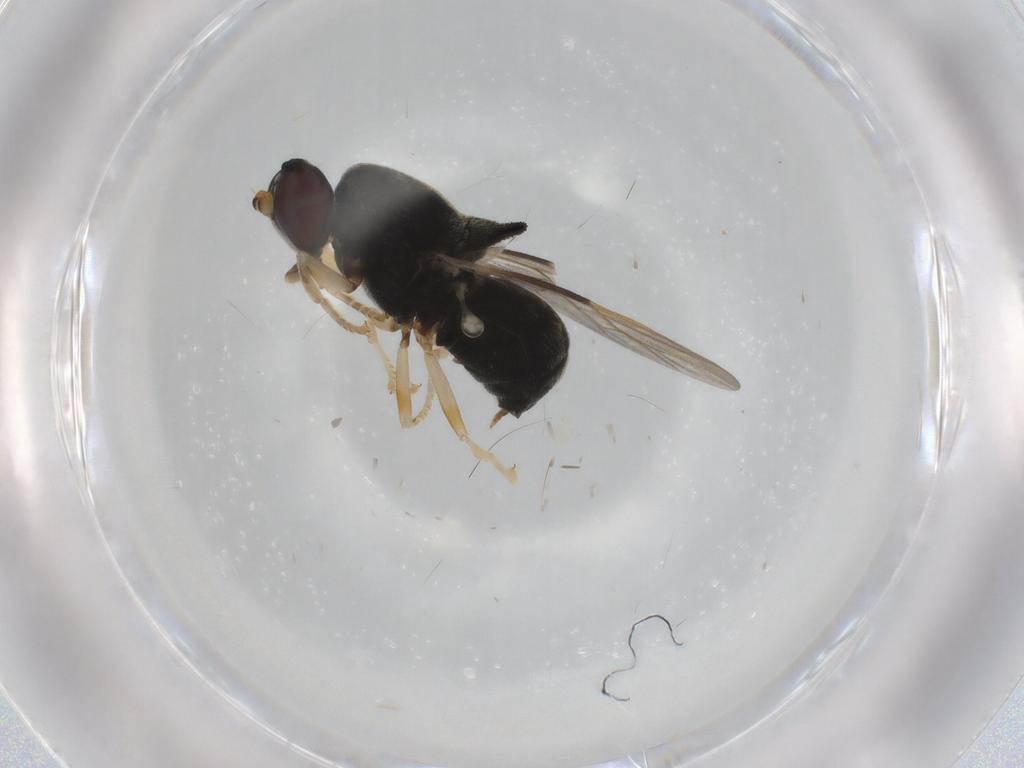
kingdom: Animalia
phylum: Arthropoda
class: Insecta
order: Diptera
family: Stratiomyidae
